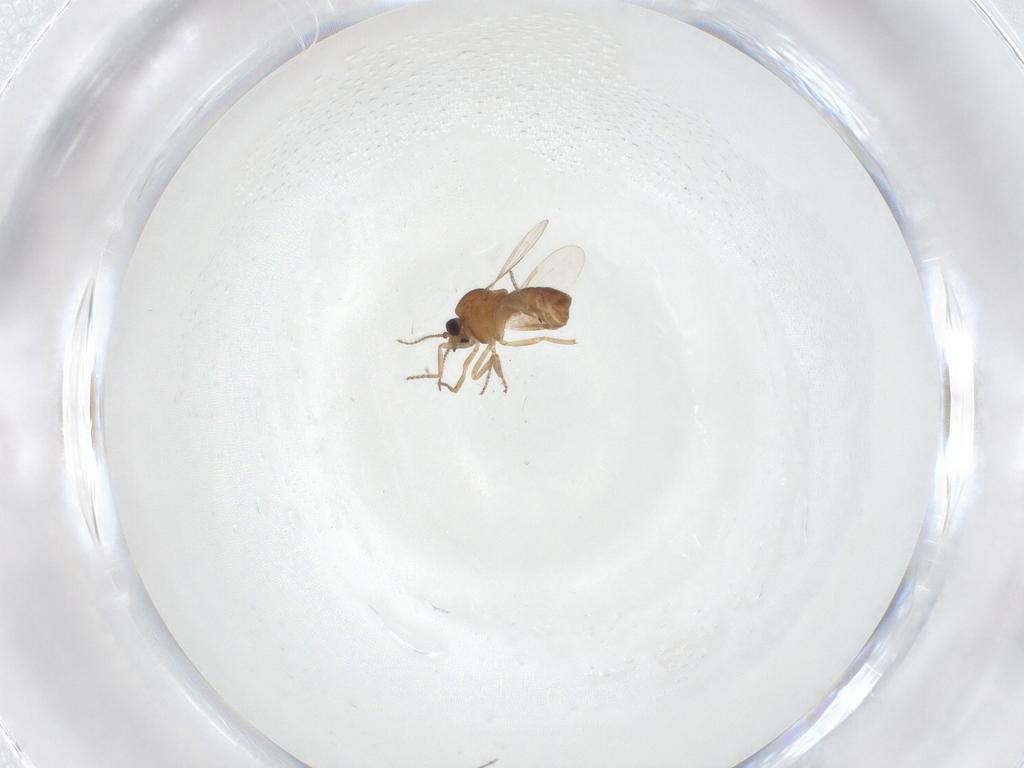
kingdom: Animalia
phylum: Arthropoda
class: Insecta
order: Diptera
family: Ceratopogonidae
